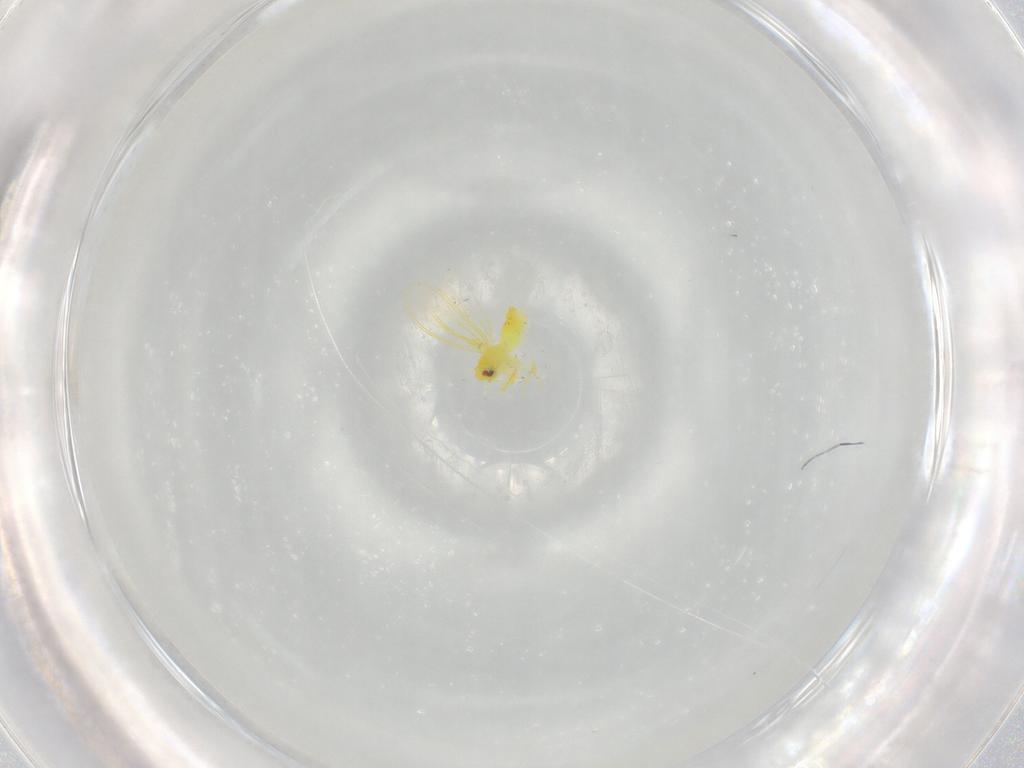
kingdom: Animalia
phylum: Arthropoda
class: Insecta
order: Hemiptera
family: Aleyrodidae
